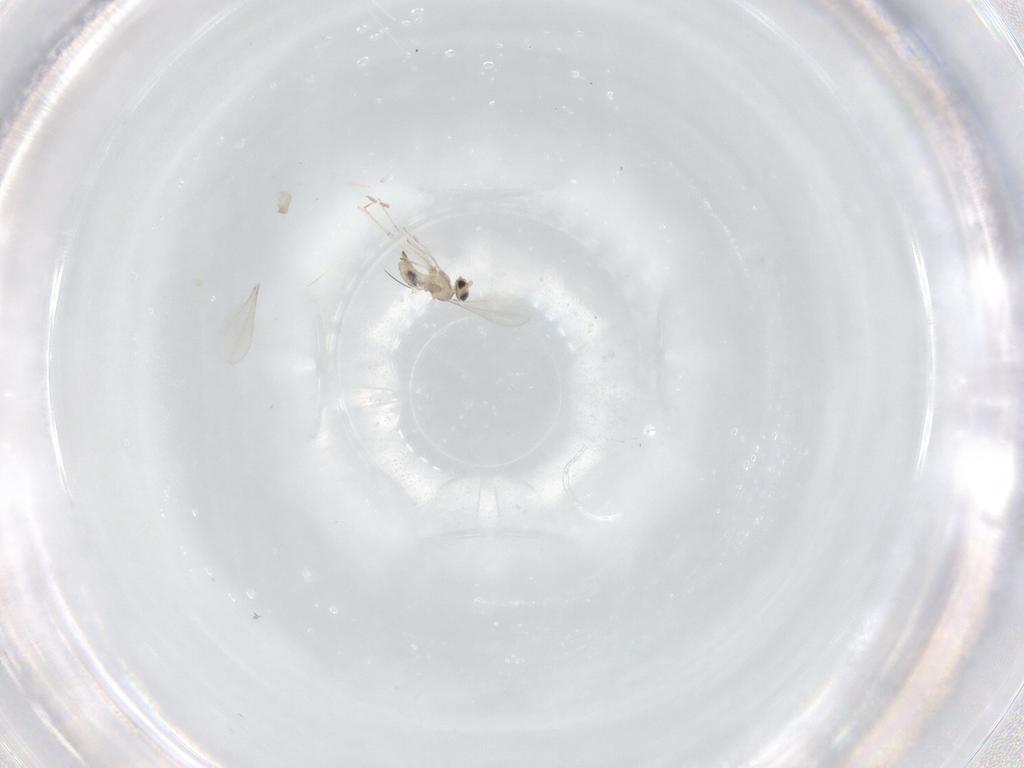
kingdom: Animalia
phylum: Arthropoda
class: Insecta
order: Diptera
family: Cecidomyiidae
